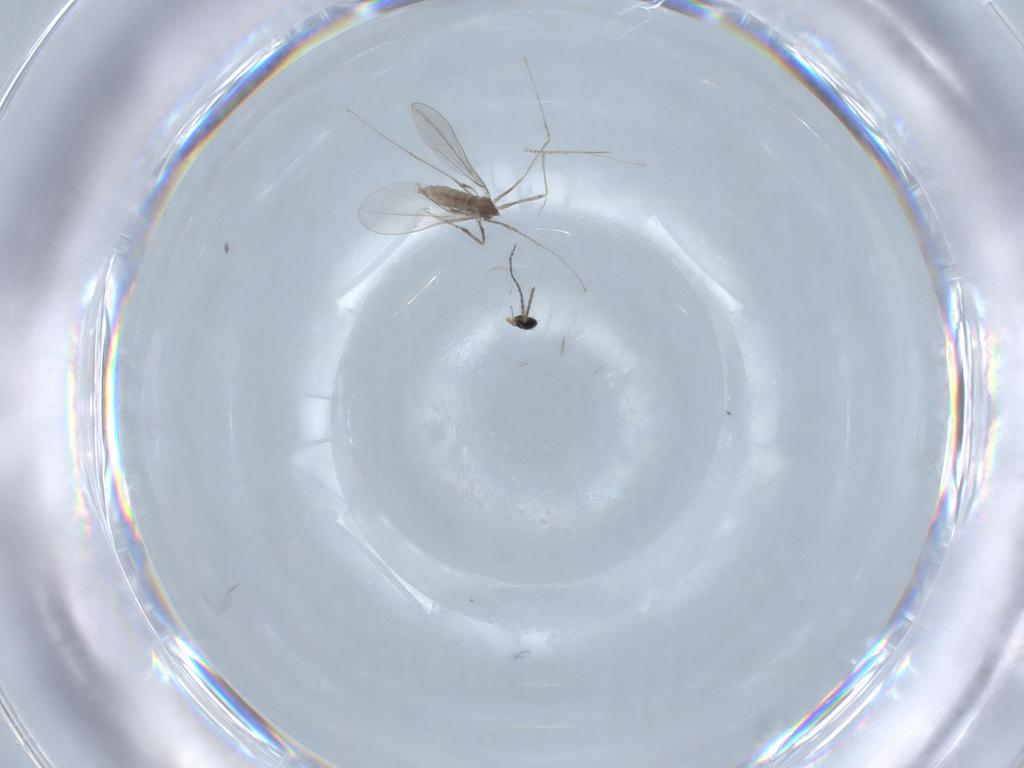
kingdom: Animalia
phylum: Arthropoda
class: Insecta
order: Diptera
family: Cecidomyiidae
